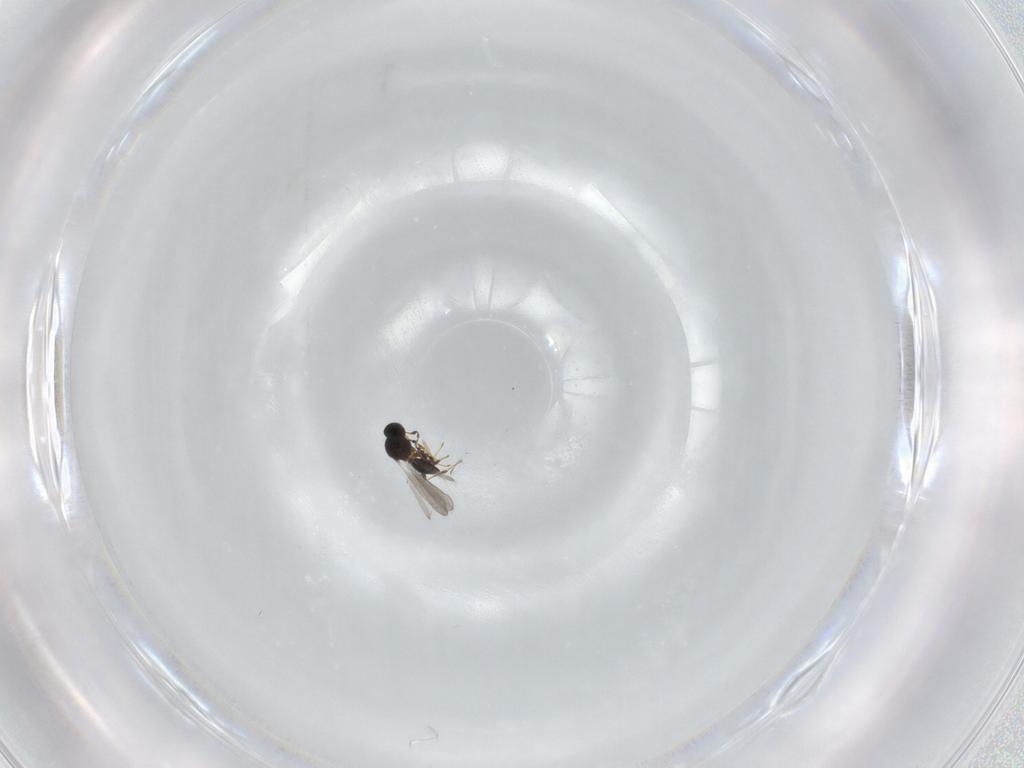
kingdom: Animalia
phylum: Arthropoda
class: Insecta
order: Hymenoptera
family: Platygastridae
